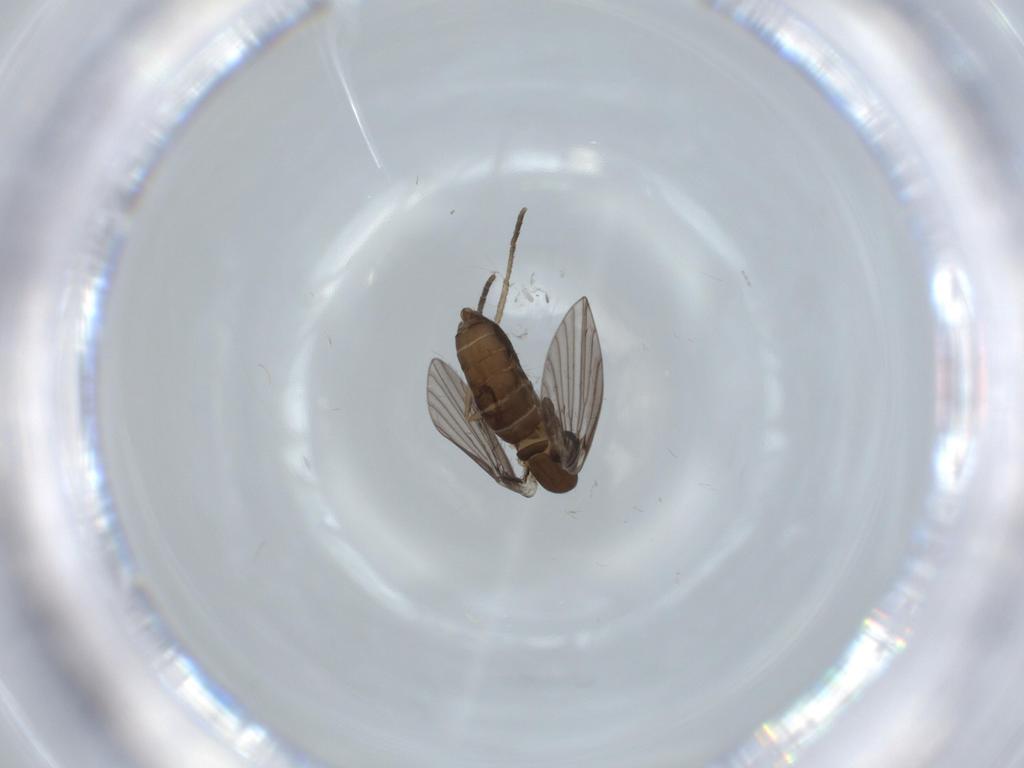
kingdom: Animalia
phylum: Arthropoda
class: Insecta
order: Diptera
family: Psychodidae
